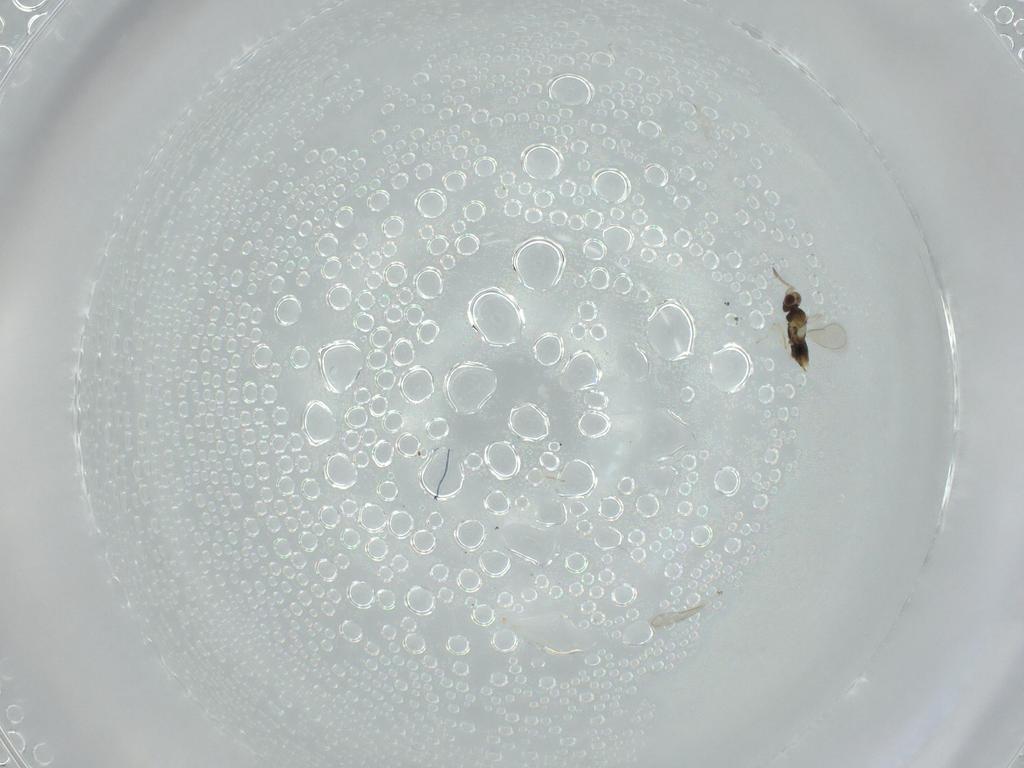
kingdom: Animalia
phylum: Arthropoda
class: Insecta
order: Hymenoptera
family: Aphelinidae
